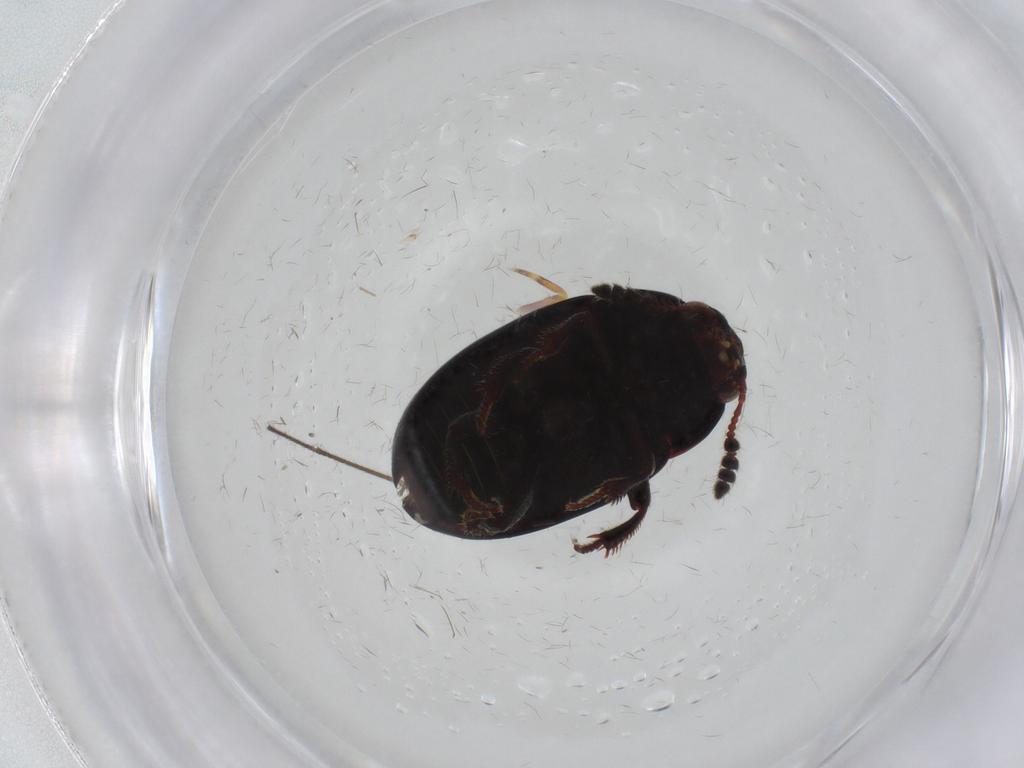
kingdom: Animalia
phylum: Arthropoda
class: Insecta
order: Coleoptera
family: Leiodidae
